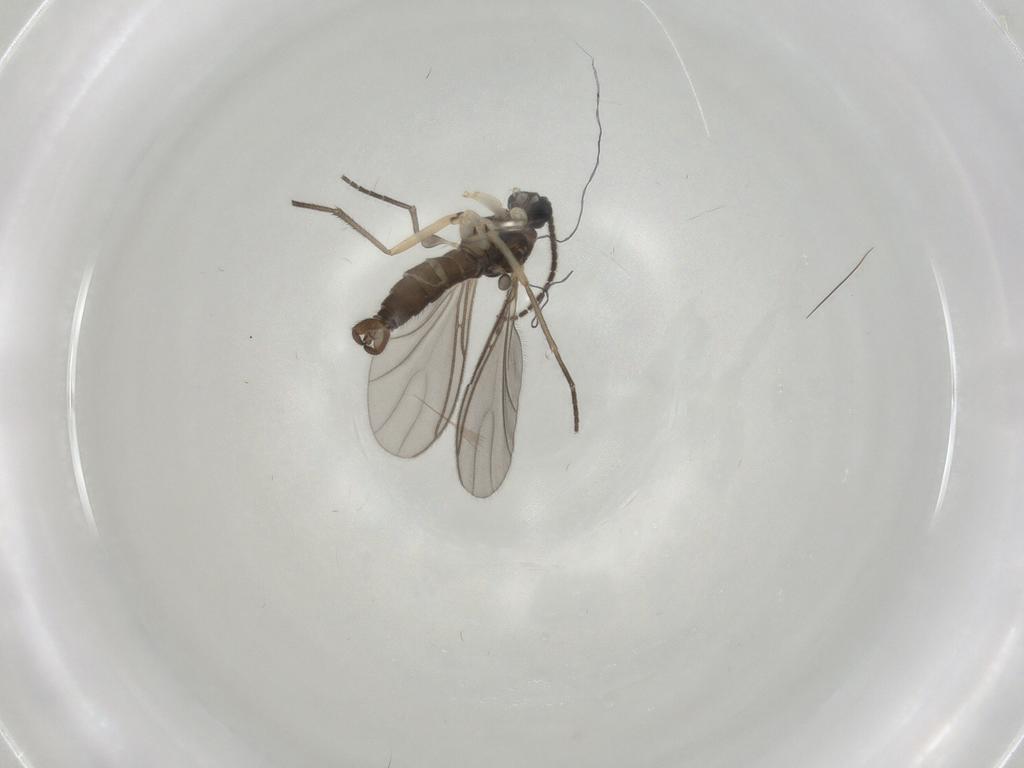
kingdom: Animalia
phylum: Arthropoda
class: Insecta
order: Diptera
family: Sciaridae
